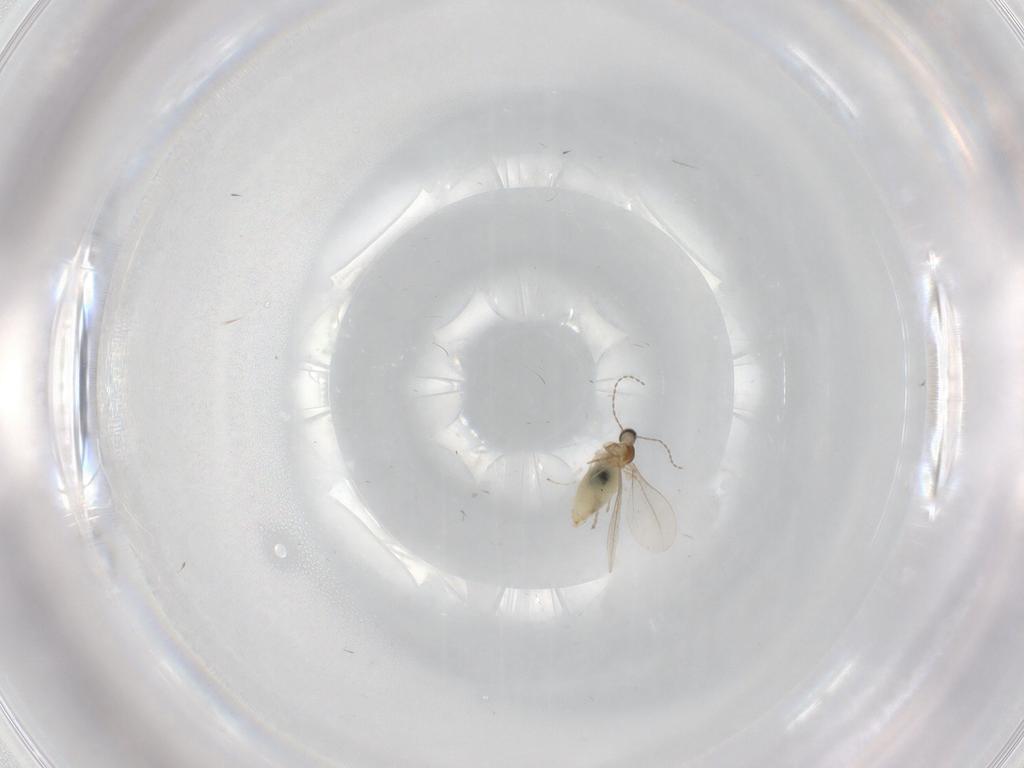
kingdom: Animalia
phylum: Arthropoda
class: Insecta
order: Diptera
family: Cecidomyiidae
